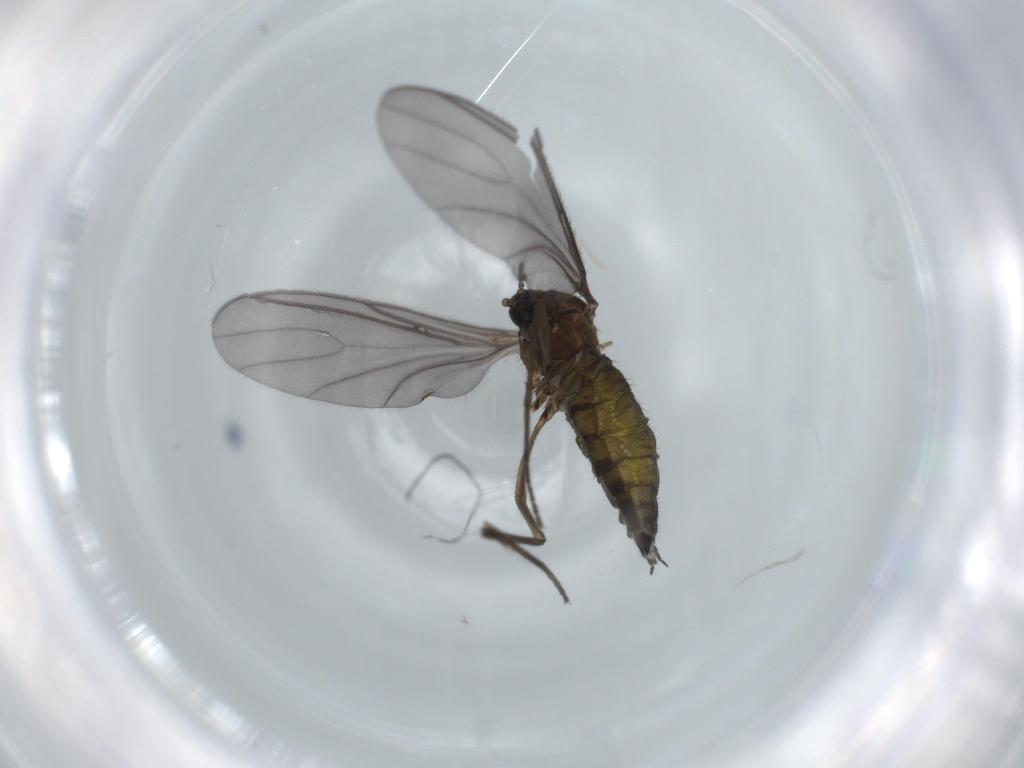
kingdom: Animalia
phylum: Arthropoda
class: Insecta
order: Diptera
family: Sciaridae
